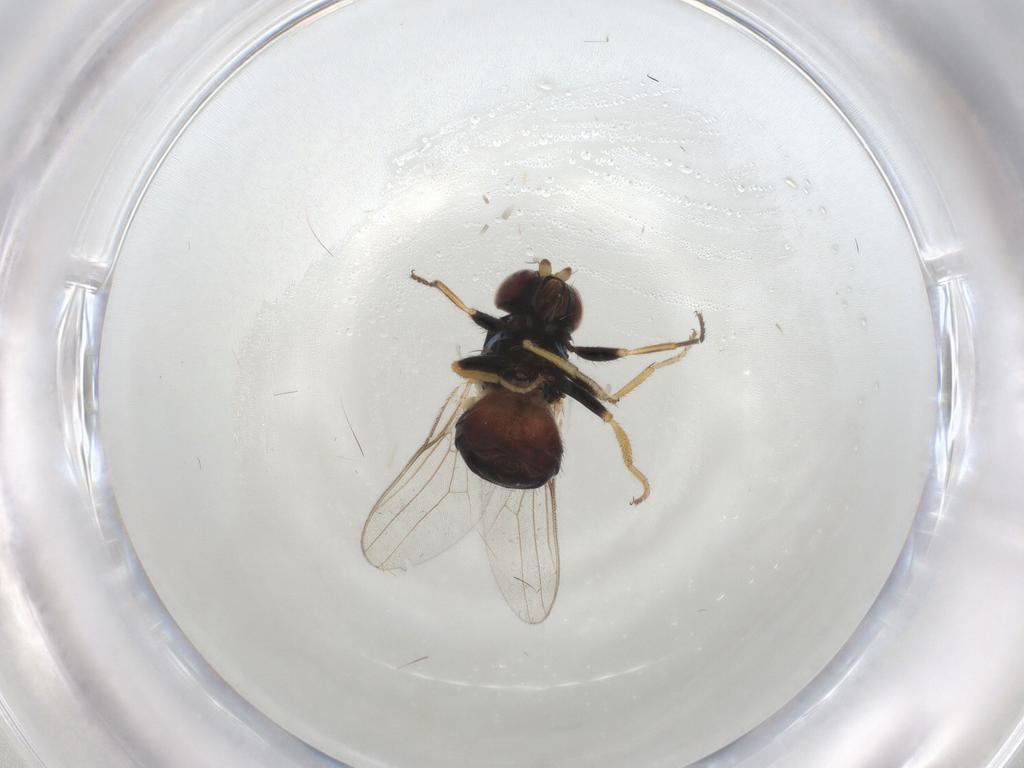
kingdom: Animalia
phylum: Arthropoda
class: Insecta
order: Diptera
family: Chloropidae
